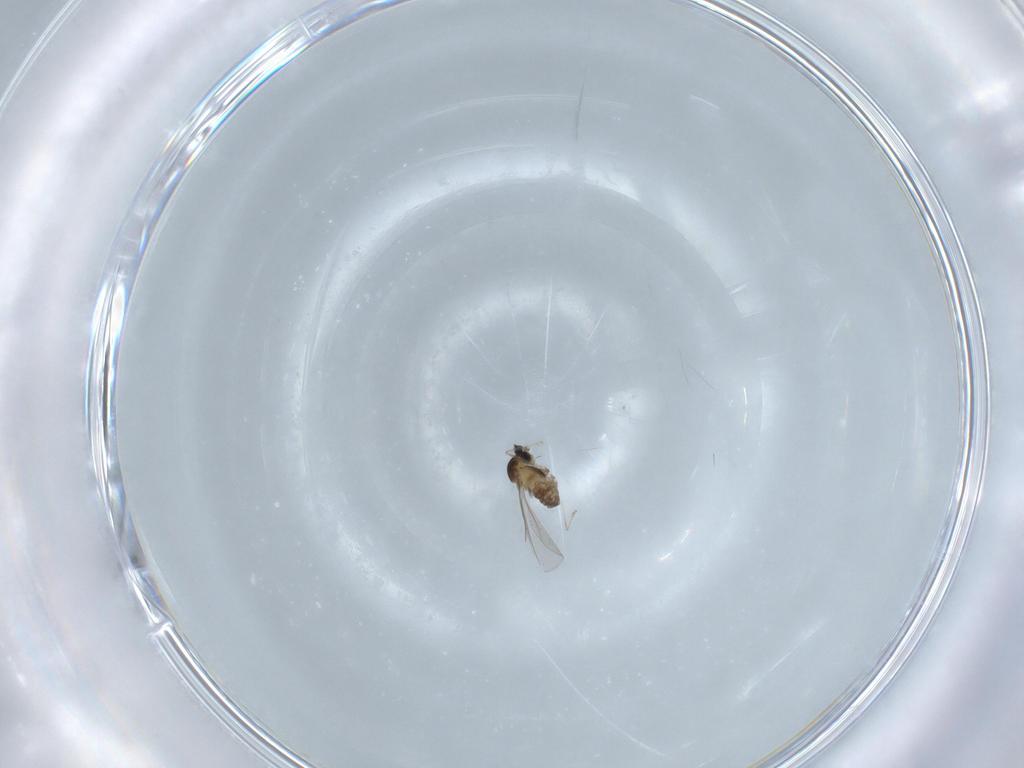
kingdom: Animalia
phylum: Arthropoda
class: Insecta
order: Diptera
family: Cecidomyiidae
